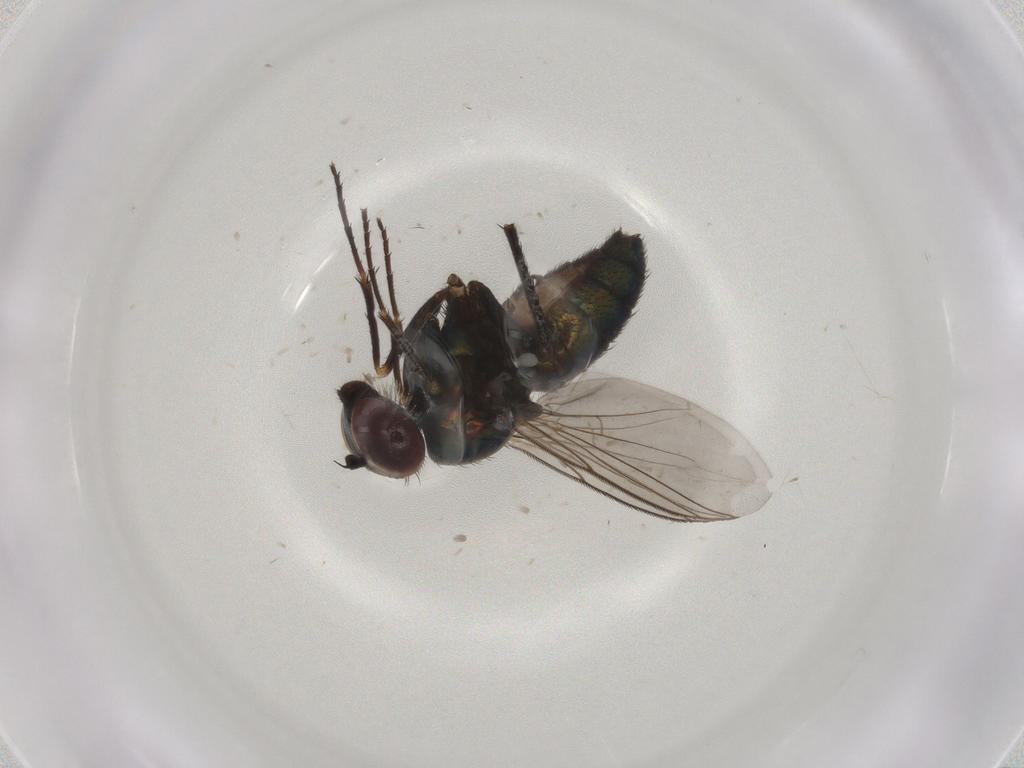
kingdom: Animalia
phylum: Arthropoda
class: Insecta
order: Diptera
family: Dolichopodidae
